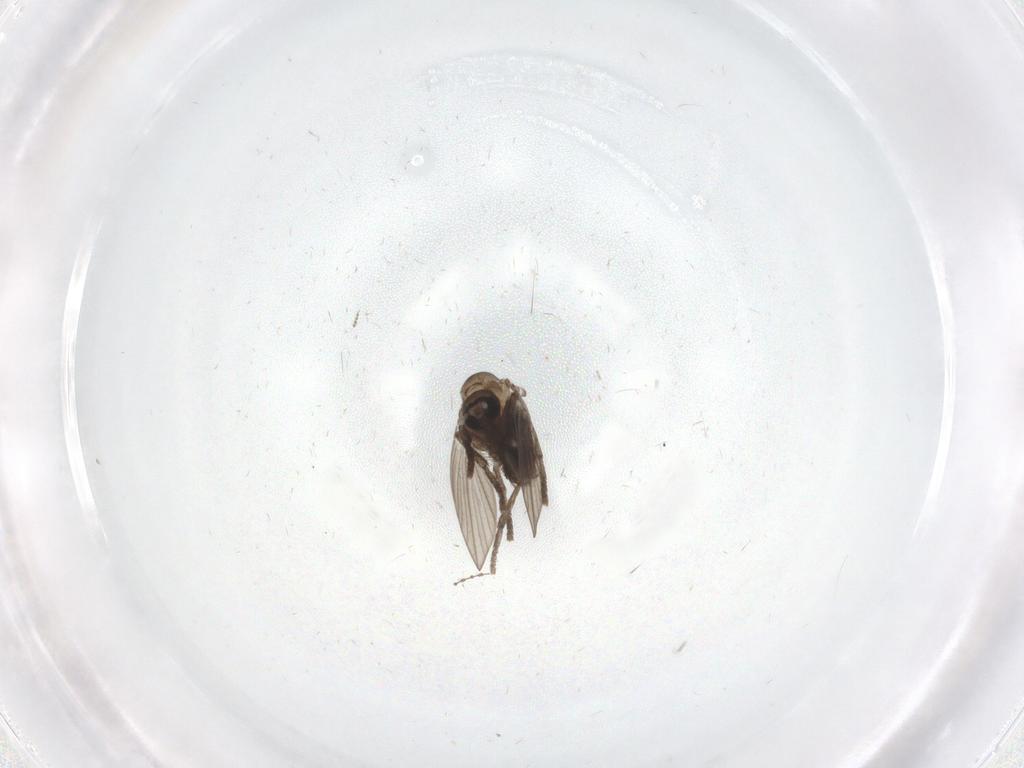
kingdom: Animalia
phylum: Arthropoda
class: Insecta
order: Diptera
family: Psychodidae
